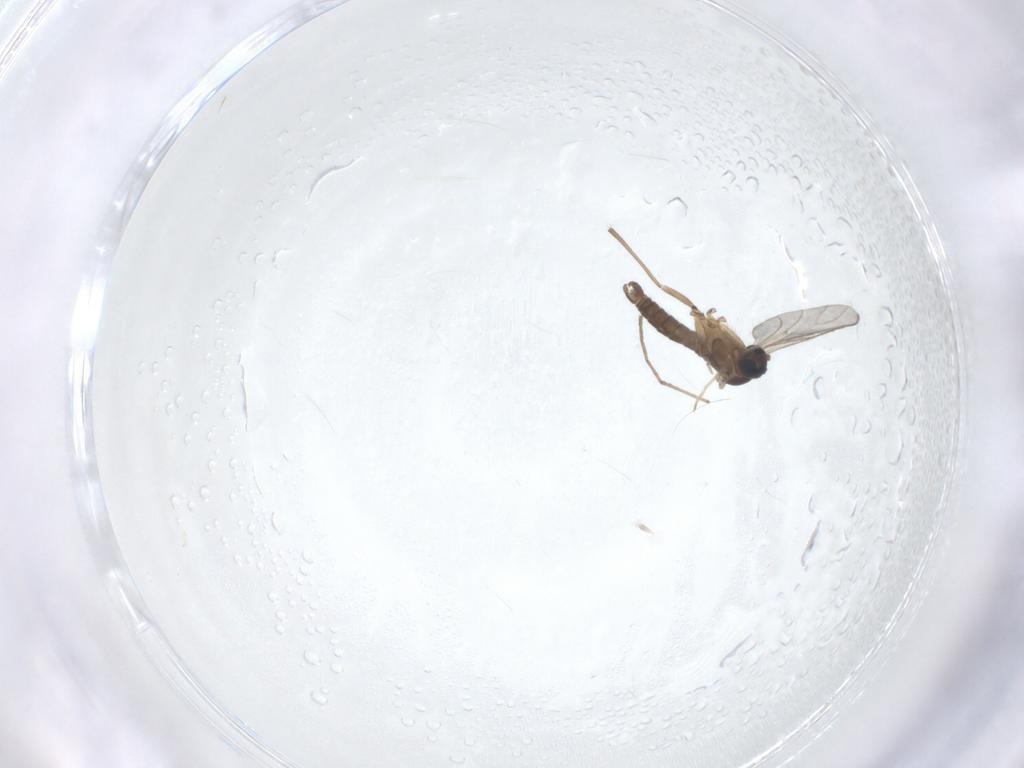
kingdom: Animalia
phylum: Arthropoda
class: Insecta
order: Diptera
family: Chironomidae
